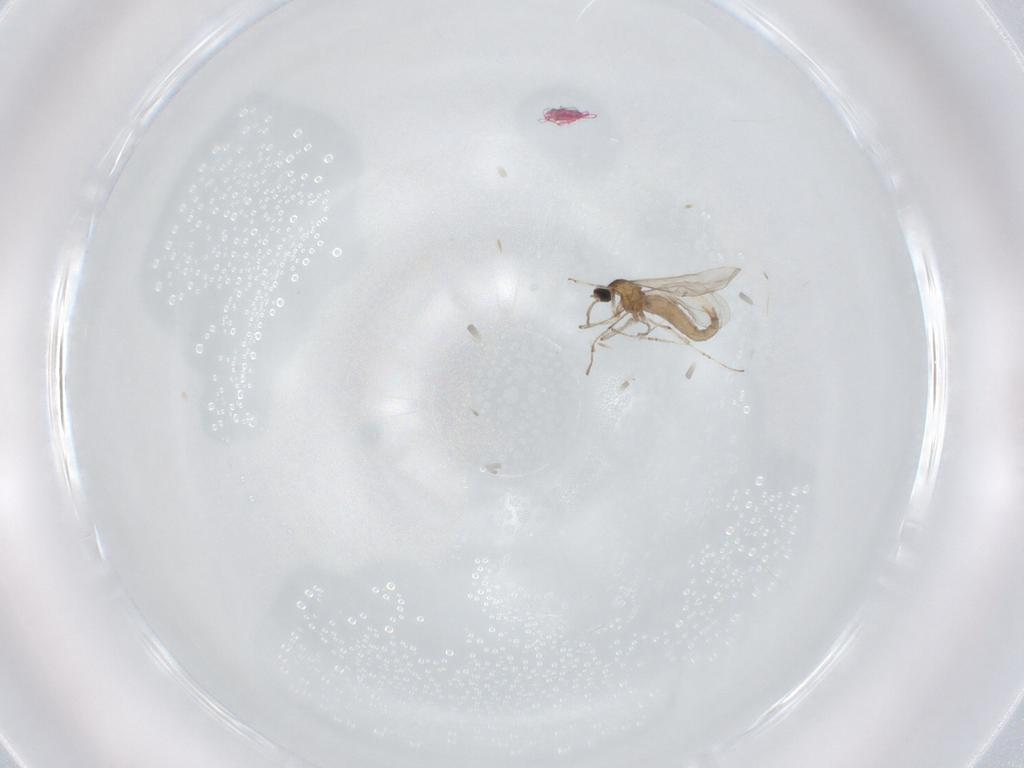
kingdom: Animalia
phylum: Arthropoda
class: Insecta
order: Diptera
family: Cecidomyiidae
